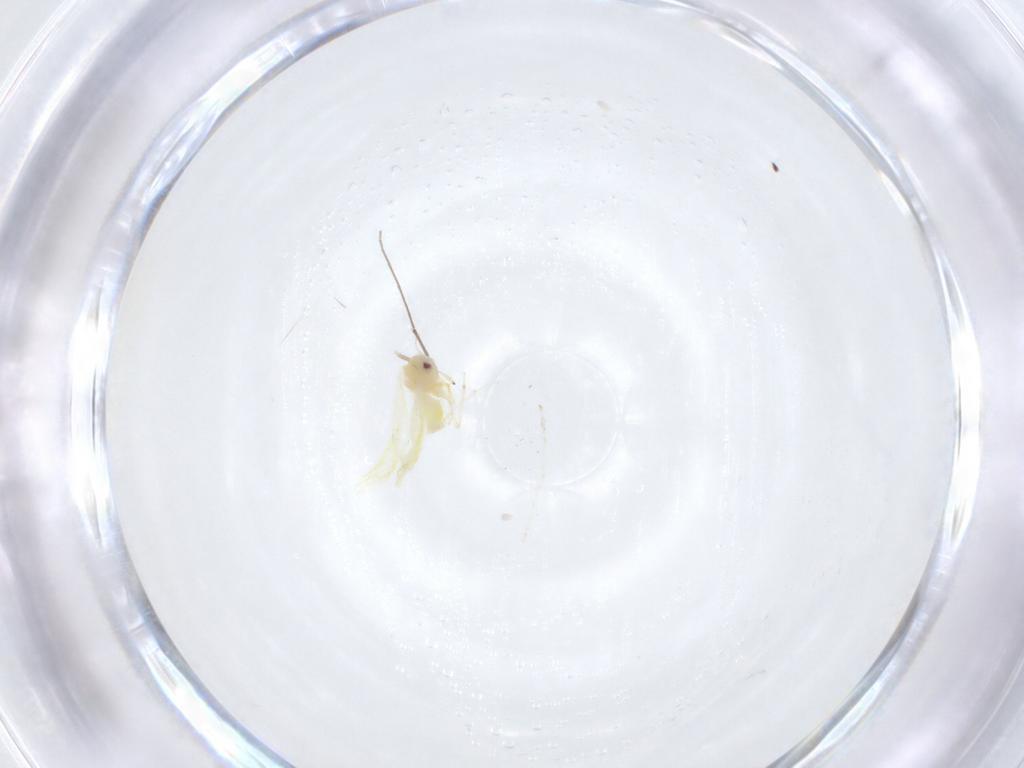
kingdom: Animalia
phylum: Arthropoda
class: Insecta
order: Hemiptera
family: Aleyrodidae
